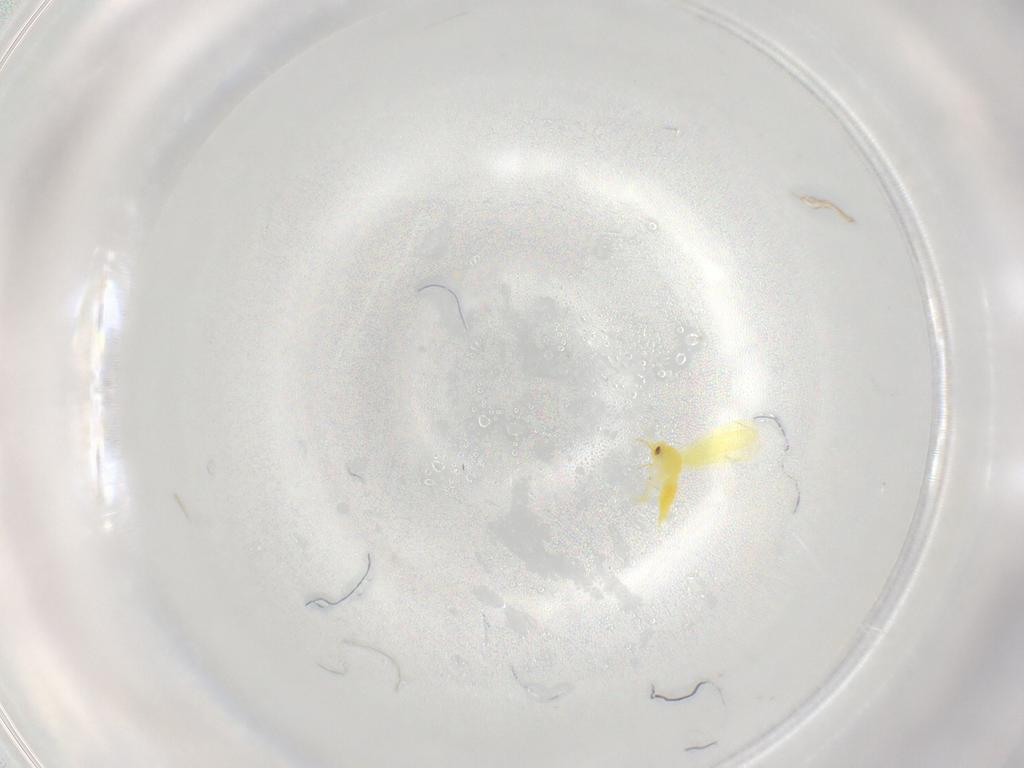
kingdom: Animalia
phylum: Arthropoda
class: Insecta
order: Hemiptera
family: Aleyrodidae
